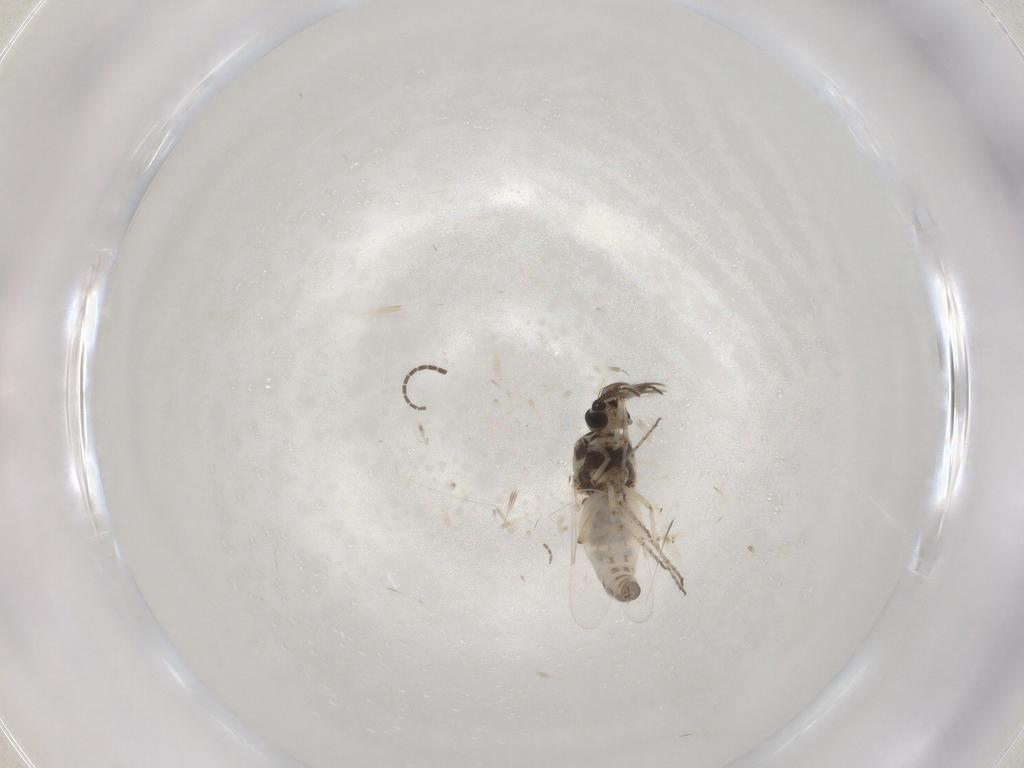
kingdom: Animalia
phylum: Arthropoda
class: Insecta
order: Diptera
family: Ceratopogonidae
